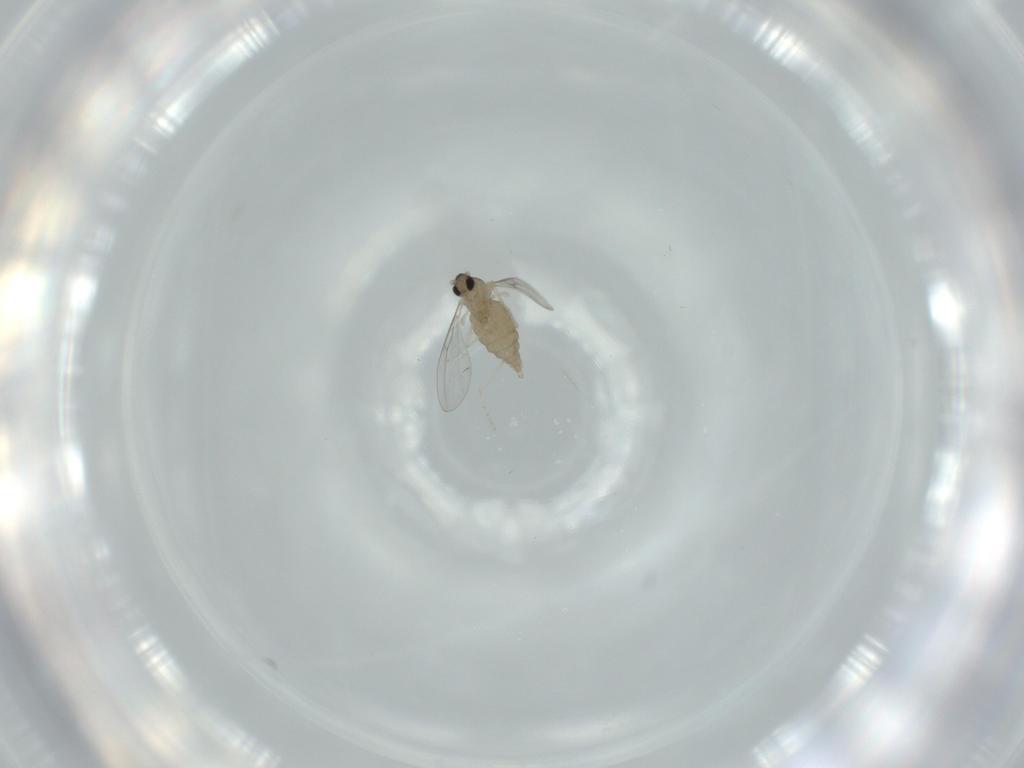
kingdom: Animalia
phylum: Arthropoda
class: Insecta
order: Diptera
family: Cecidomyiidae
